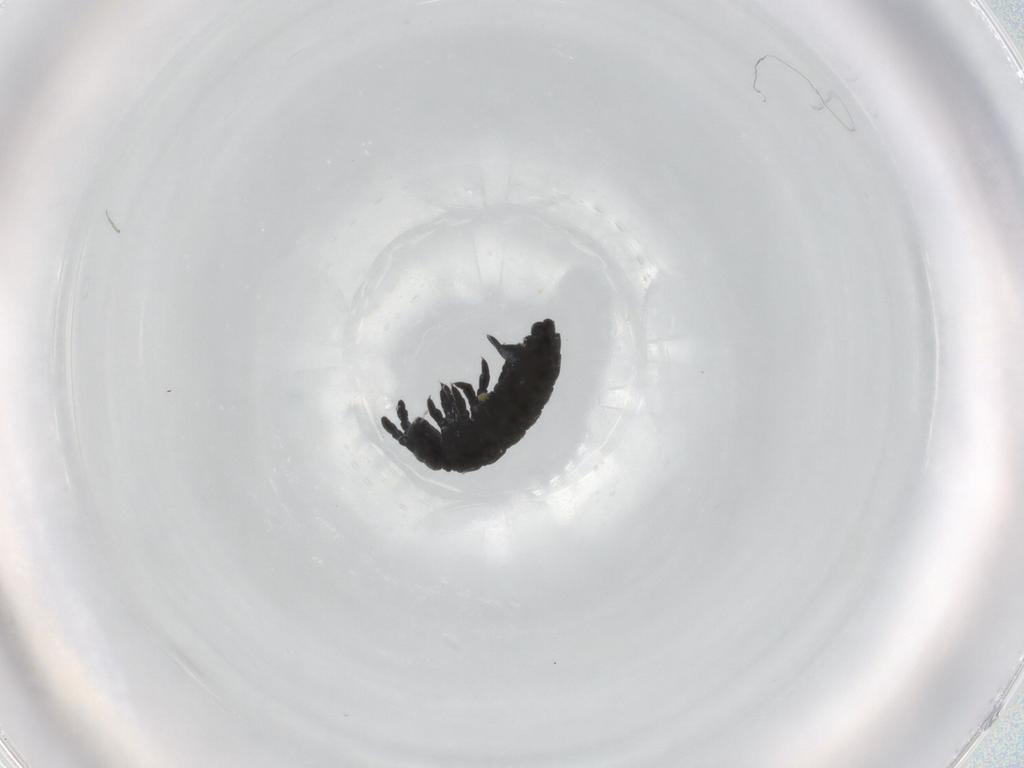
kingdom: Animalia
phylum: Arthropoda
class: Collembola
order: Poduromorpha
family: Hypogastruridae
